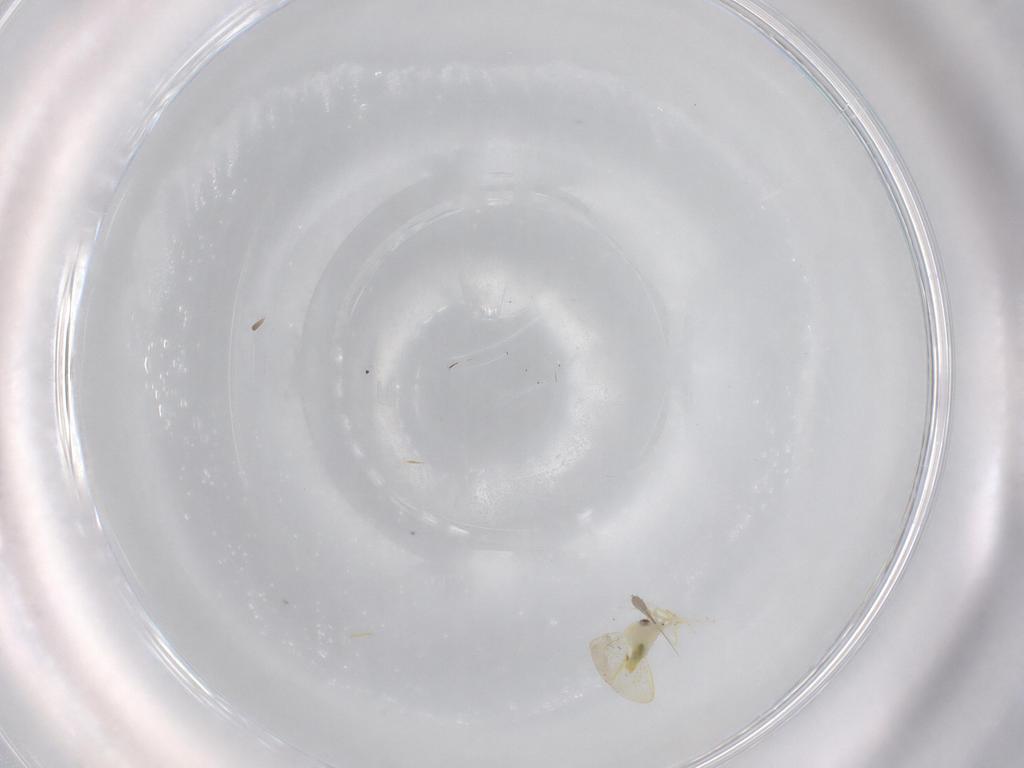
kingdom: Animalia
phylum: Arthropoda
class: Insecta
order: Hemiptera
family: Aleyrodidae
